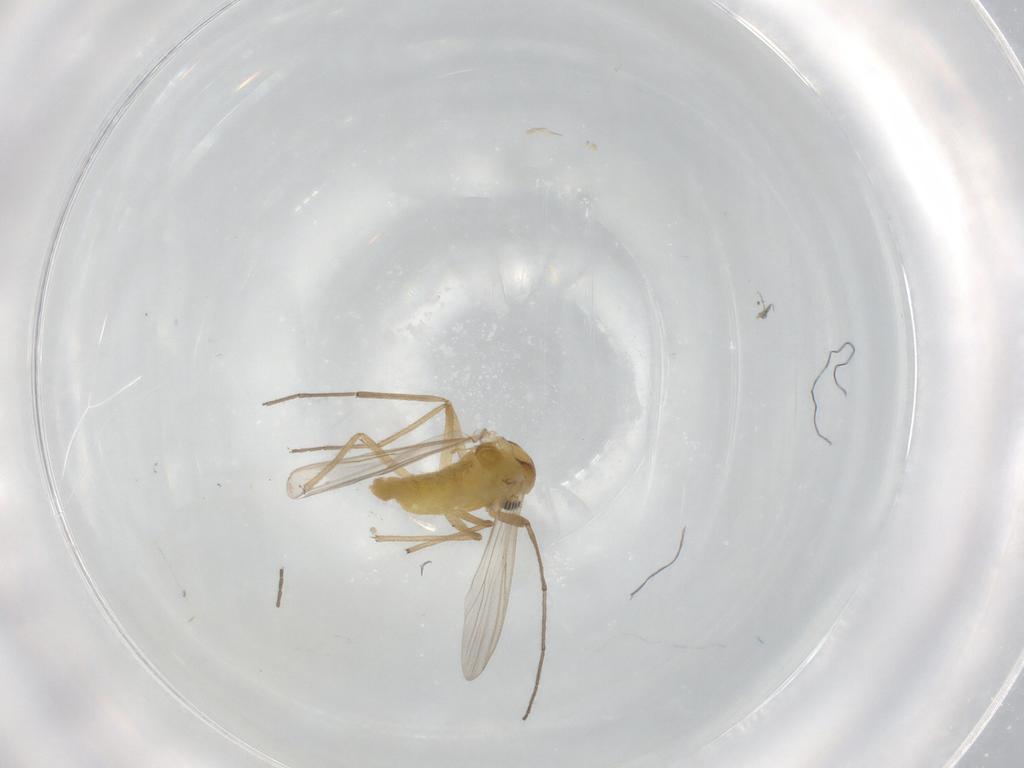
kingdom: Animalia
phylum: Arthropoda
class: Insecta
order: Diptera
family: Chironomidae
